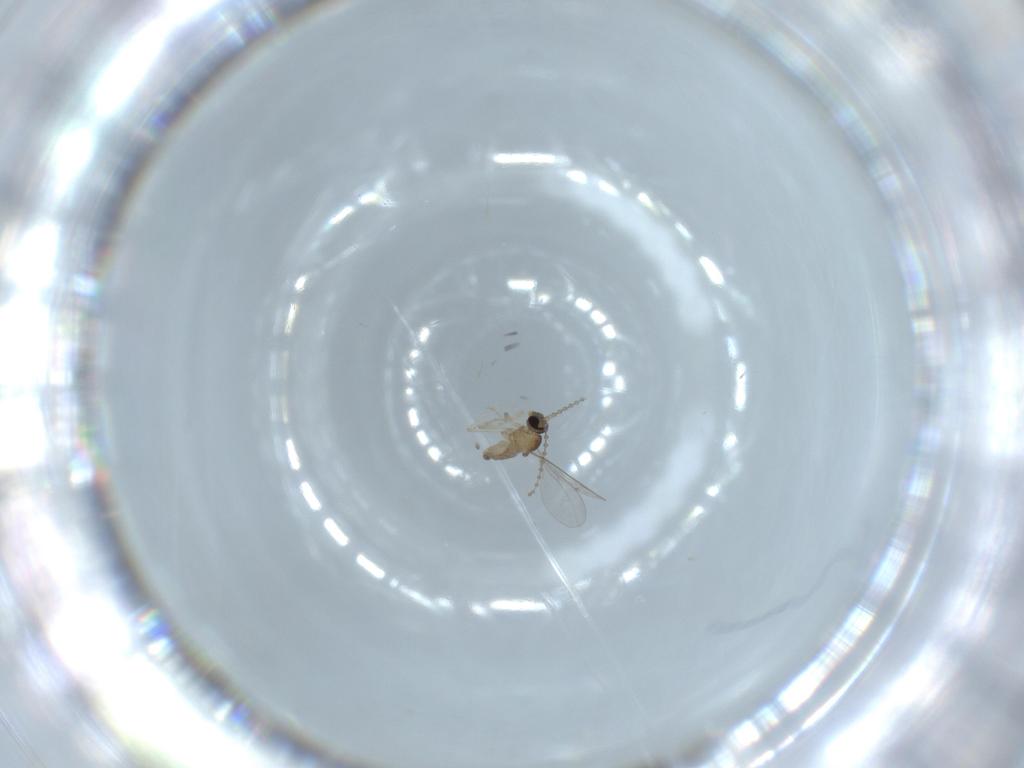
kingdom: Animalia
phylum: Arthropoda
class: Insecta
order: Diptera
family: Cecidomyiidae
